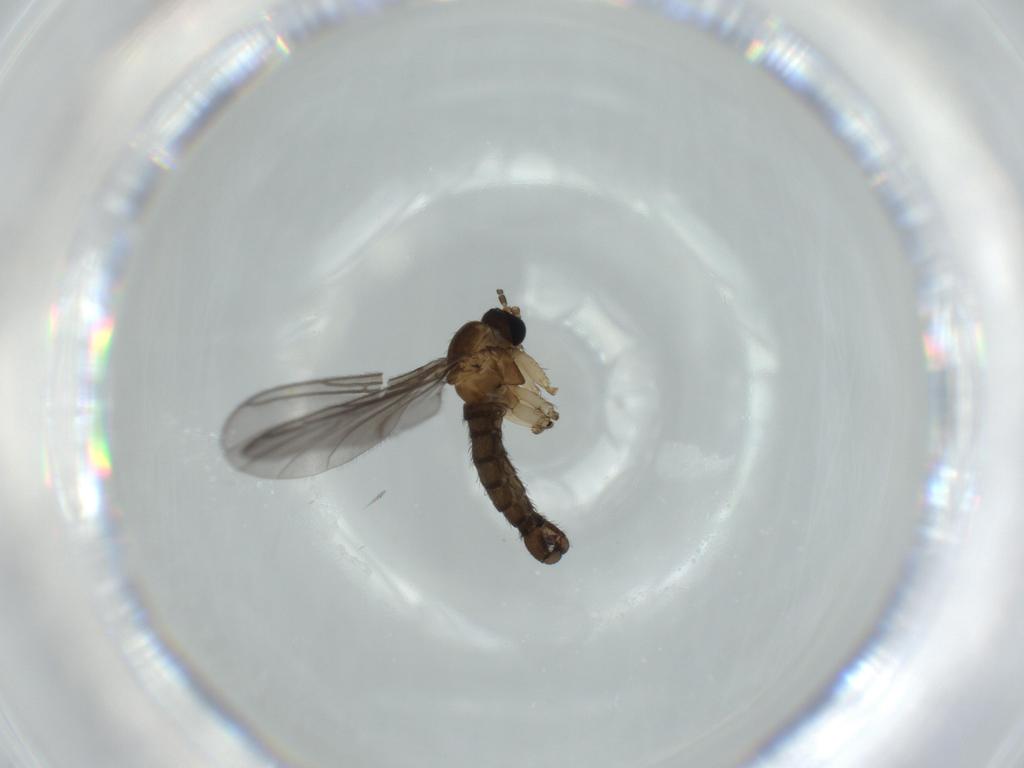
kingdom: Animalia
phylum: Arthropoda
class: Insecta
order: Diptera
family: Sciaridae
